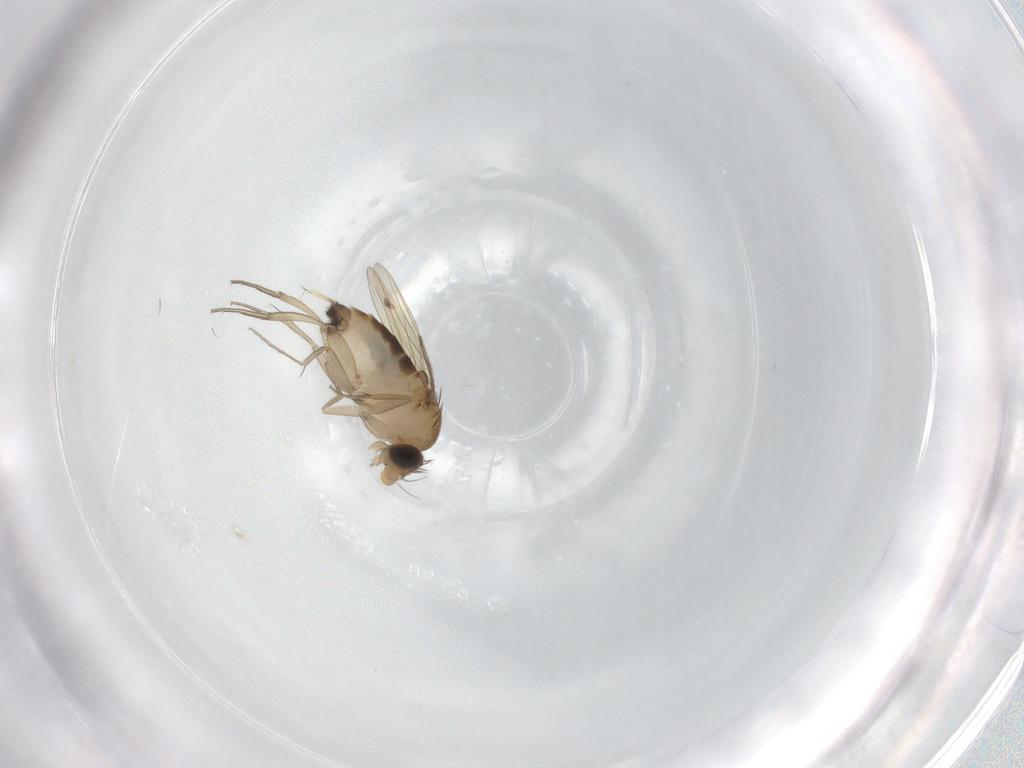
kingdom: Animalia
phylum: Arthropoda
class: Insecta
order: Diptera
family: Phoridae
